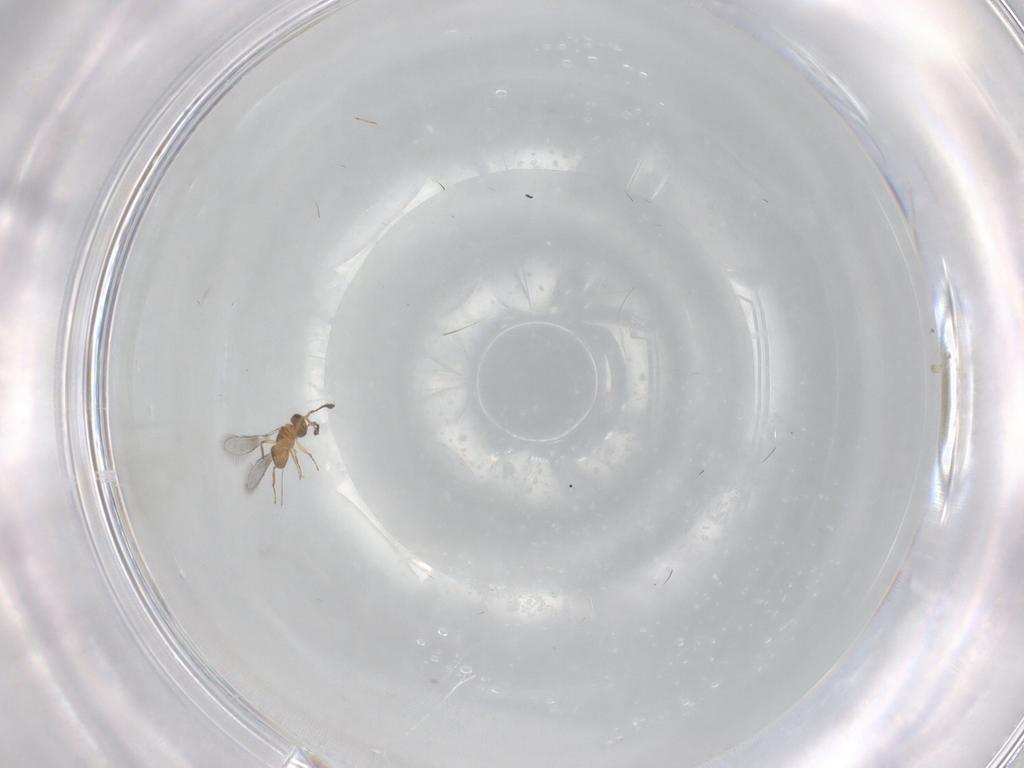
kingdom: Animalia
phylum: Arthropoda
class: Insecta
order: Hymenoptera
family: Mymaridae
